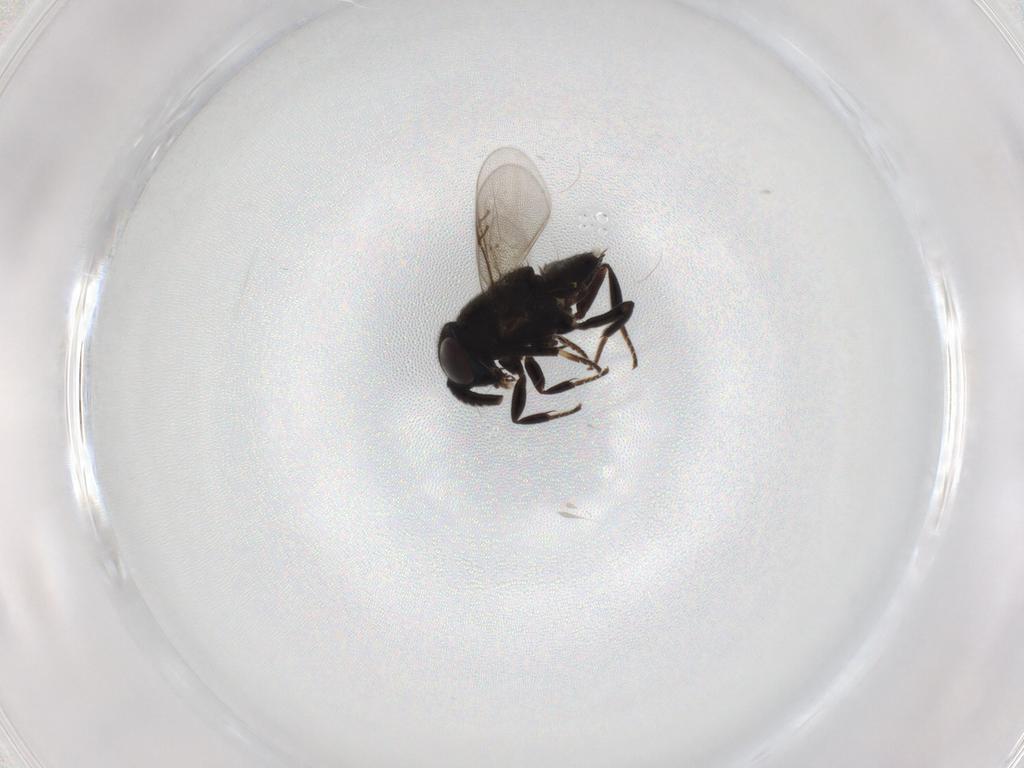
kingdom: Animalia
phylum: Arthropoda
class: Insecta
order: Hymenoptera
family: Encyrtidae
